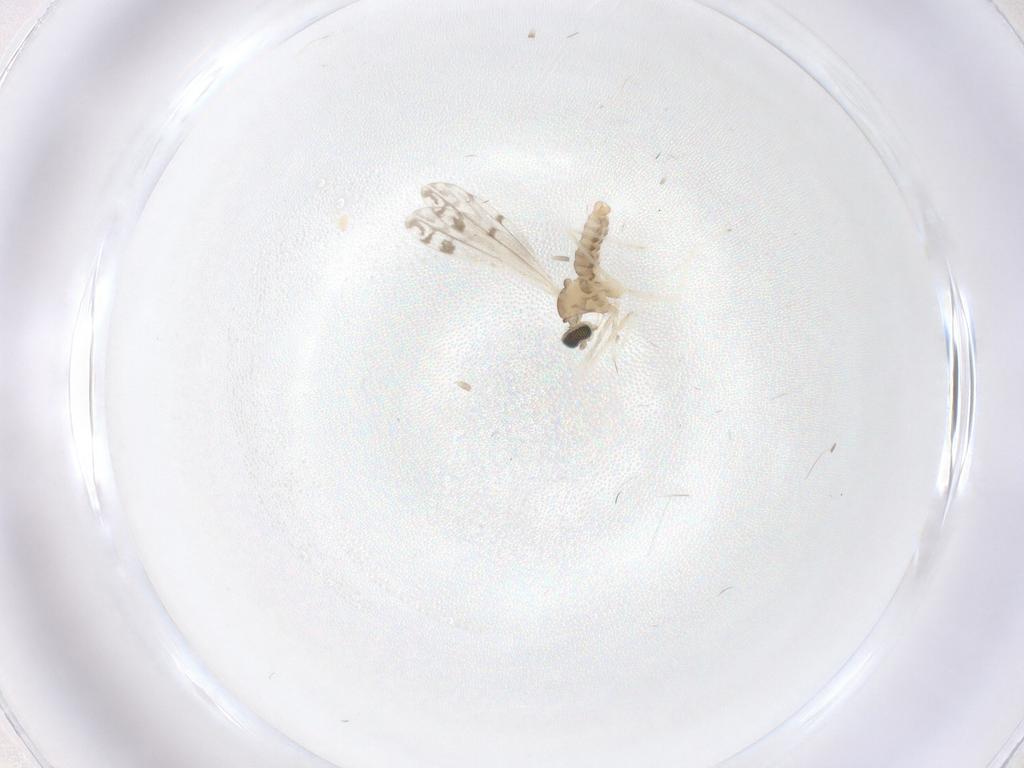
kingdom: Animalia
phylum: Arthropoda
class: Insecta
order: Diptera
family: Cecidomyiidae
